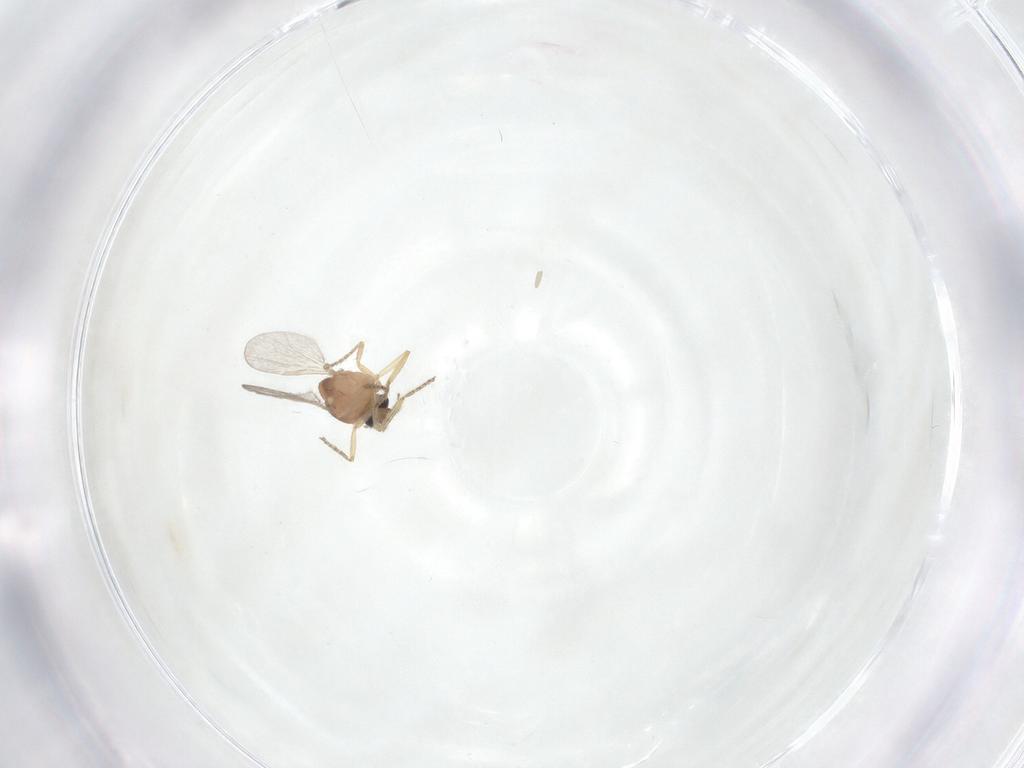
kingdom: Animalia
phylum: Arthropoda
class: Insecta
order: Diptera
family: Ceratopogonidae
